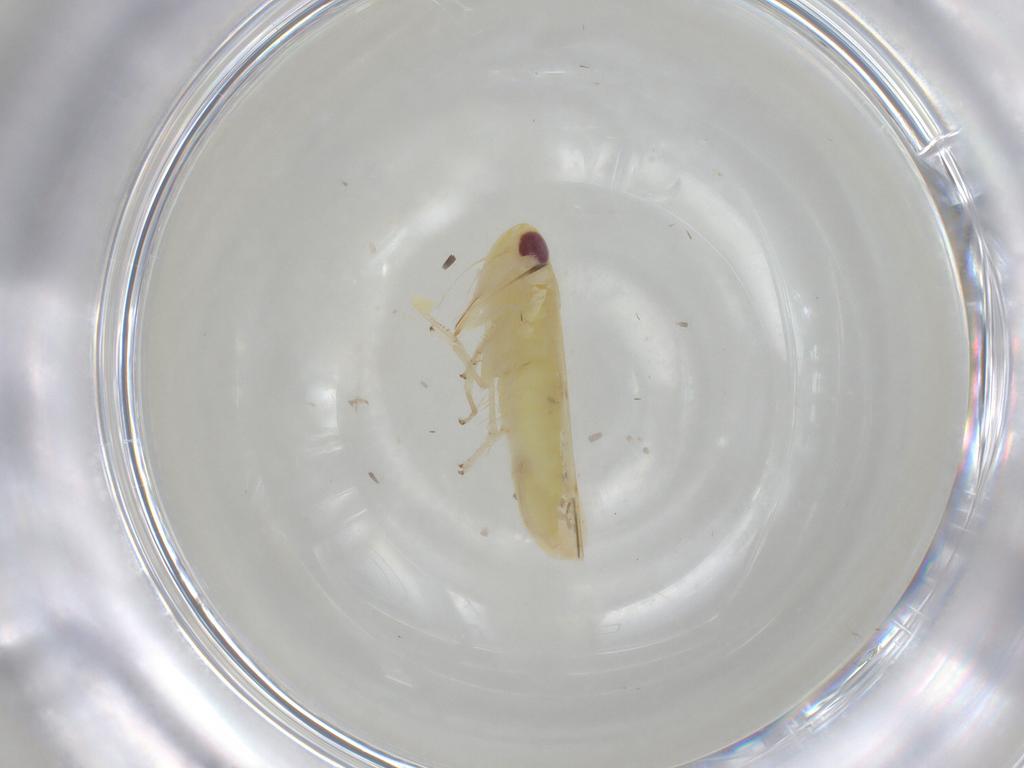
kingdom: Animalia
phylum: Arthropoda
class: Insecta
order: Hemiptera
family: Cicadellidae
